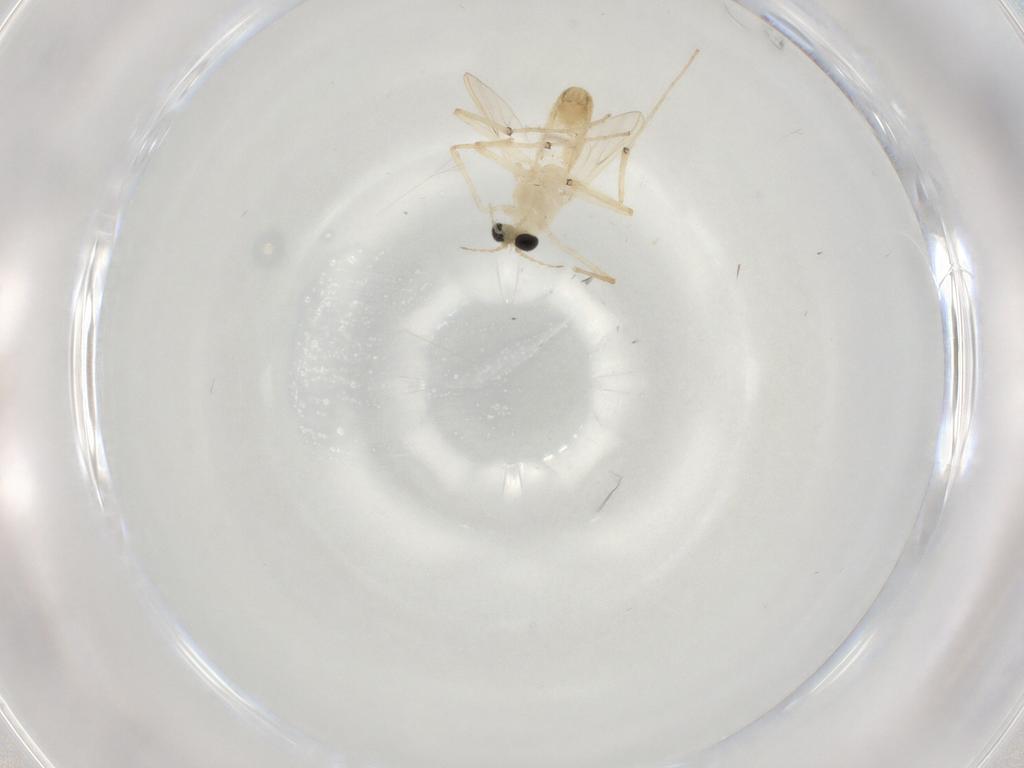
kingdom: Animalia
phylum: Arthropoda
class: Insecta
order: Diptera
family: Chironomidae
